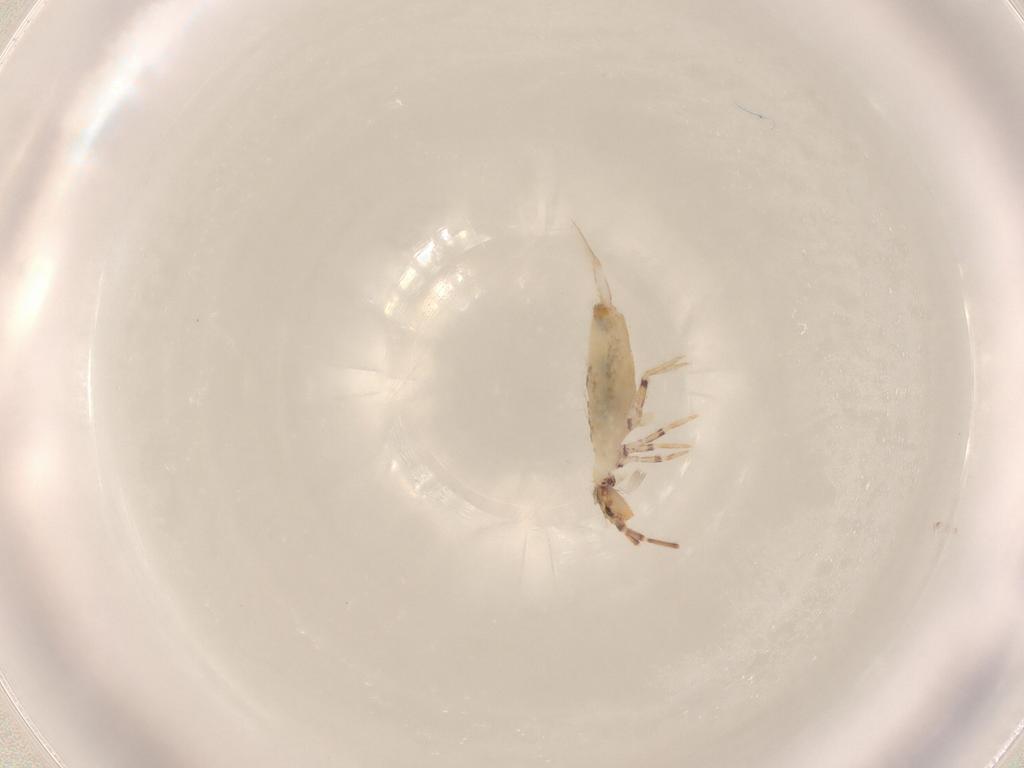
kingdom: Animalia
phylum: Arthropoda
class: Collembola
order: Entomobryomorpha
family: Entomobryidae
